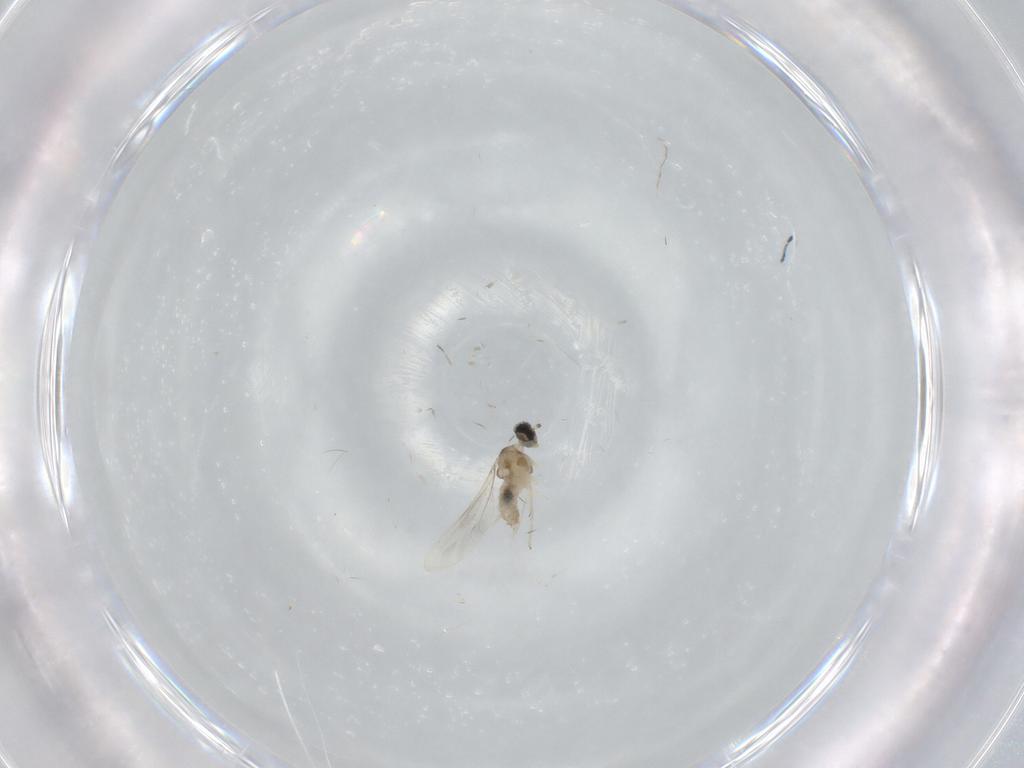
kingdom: Animalia
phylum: Arthropoda
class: Insecta
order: Diptera
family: Cecidomyiidae
